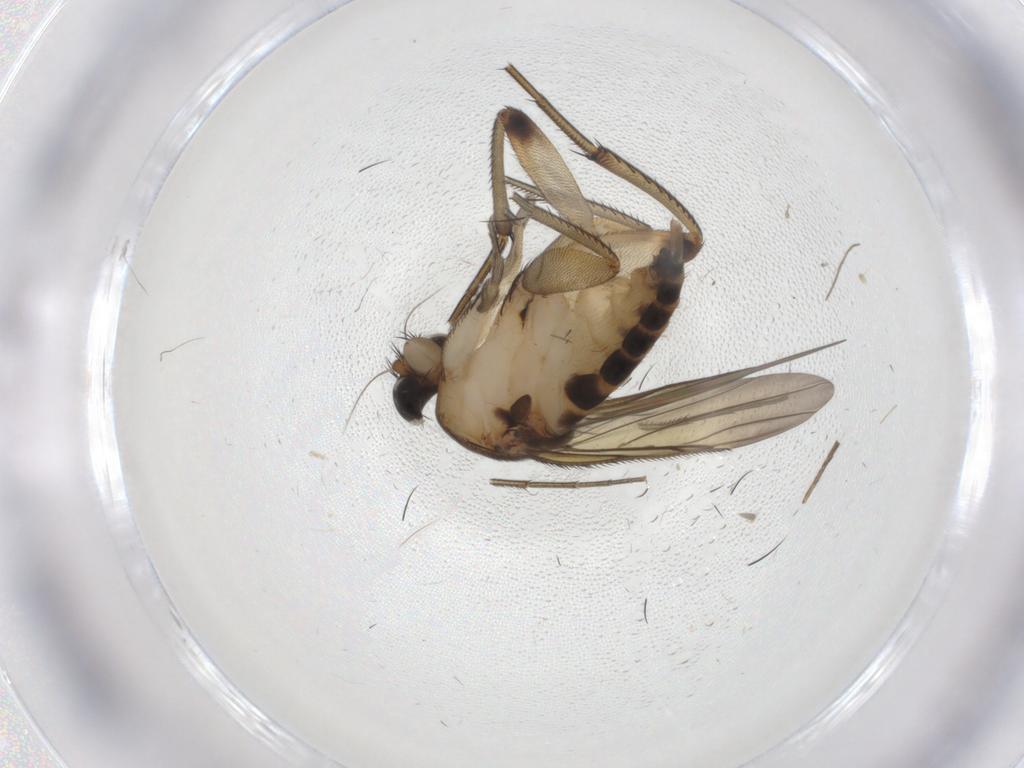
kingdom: Animalia
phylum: Arthropoda
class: Insecta
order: Diptera
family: Phoridae
